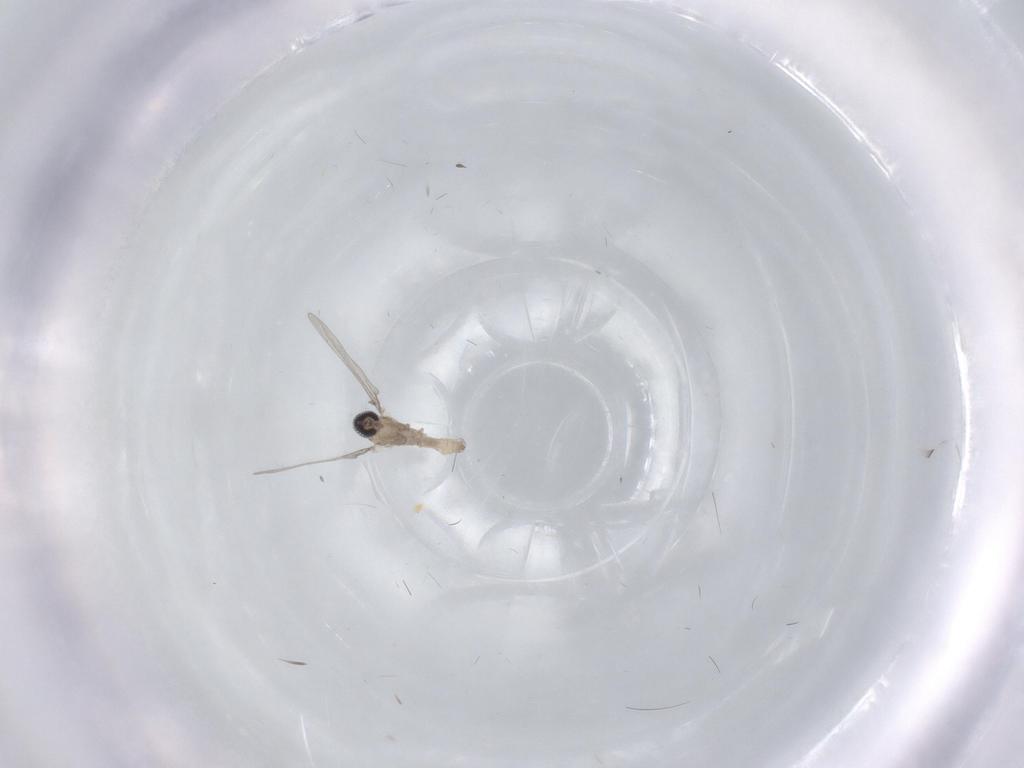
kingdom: Animalia
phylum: Arthropoda
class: Insecta
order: Diptera
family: Cecidomyiidae
